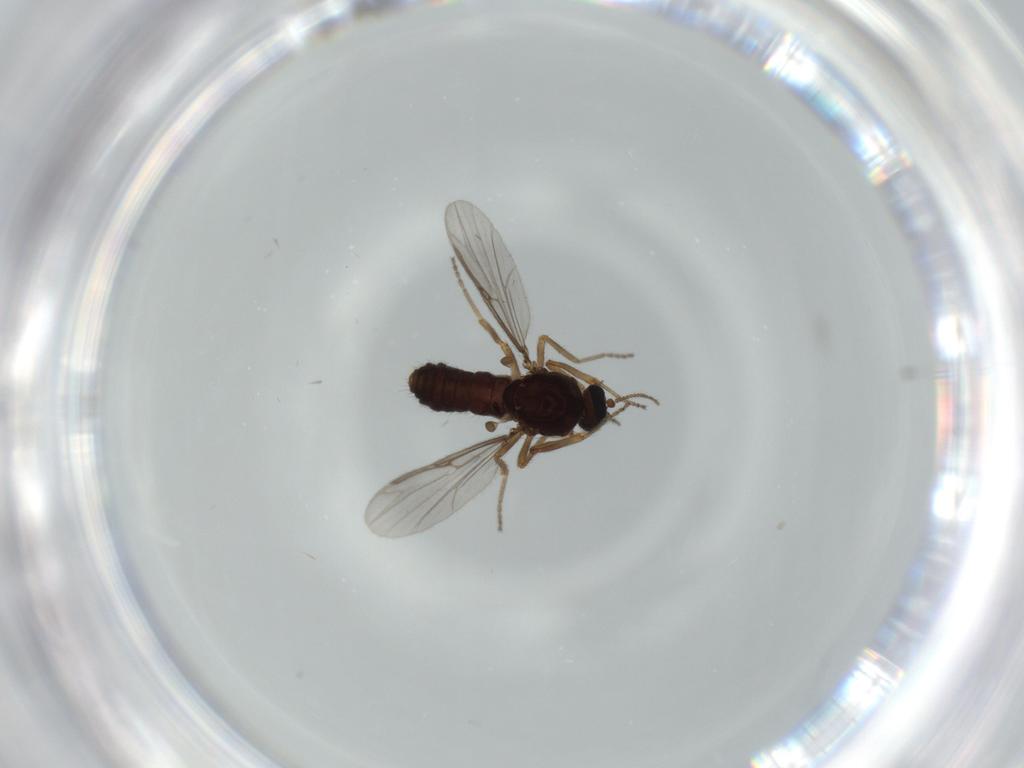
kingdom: Animalia
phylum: Arthropoda
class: Insecta
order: Diptera
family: Ceratopogonidae
